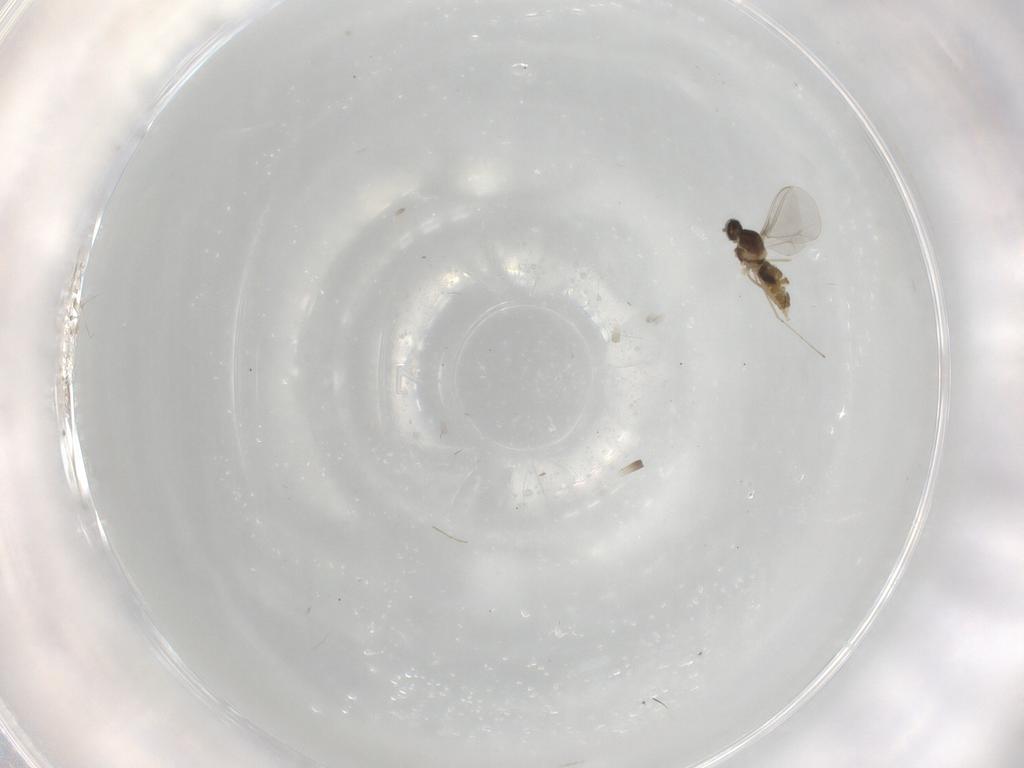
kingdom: Animalia
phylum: Arthropoda
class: Insecta
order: Diptera
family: Cecidomyiidae
